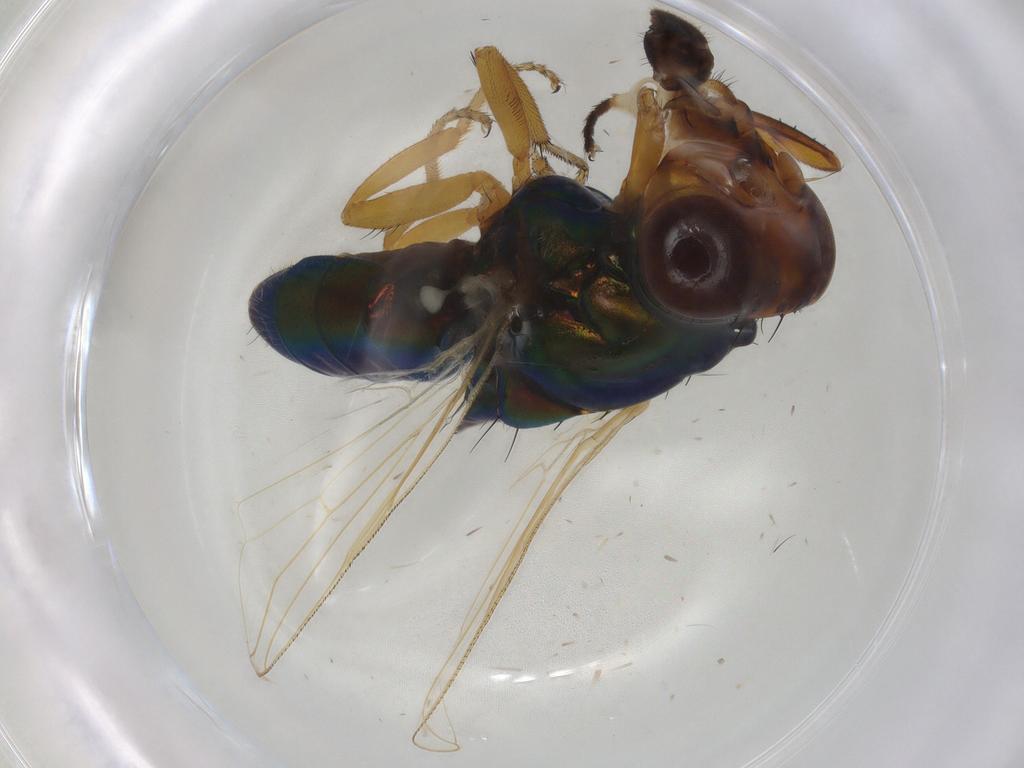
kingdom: Animalia
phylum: Arthropoda
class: Insecta
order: Diptera
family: Ulidiidae
